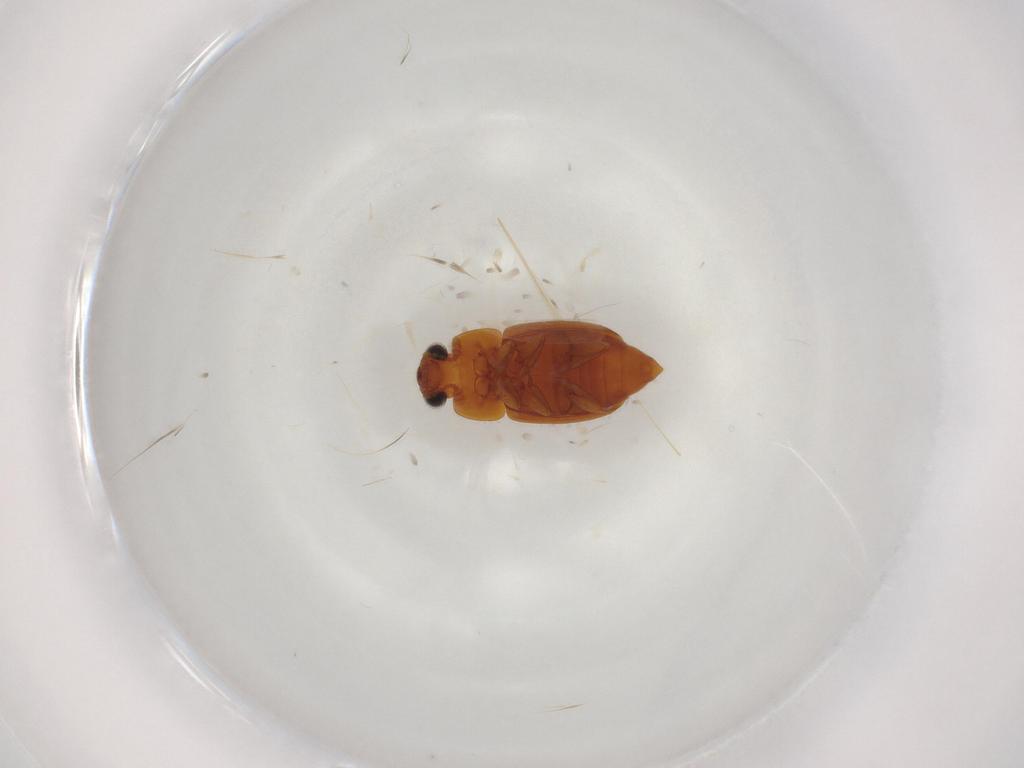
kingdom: Animalia
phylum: Arthropoda
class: Insecta
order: Coleoptera
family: Nitidulidae
